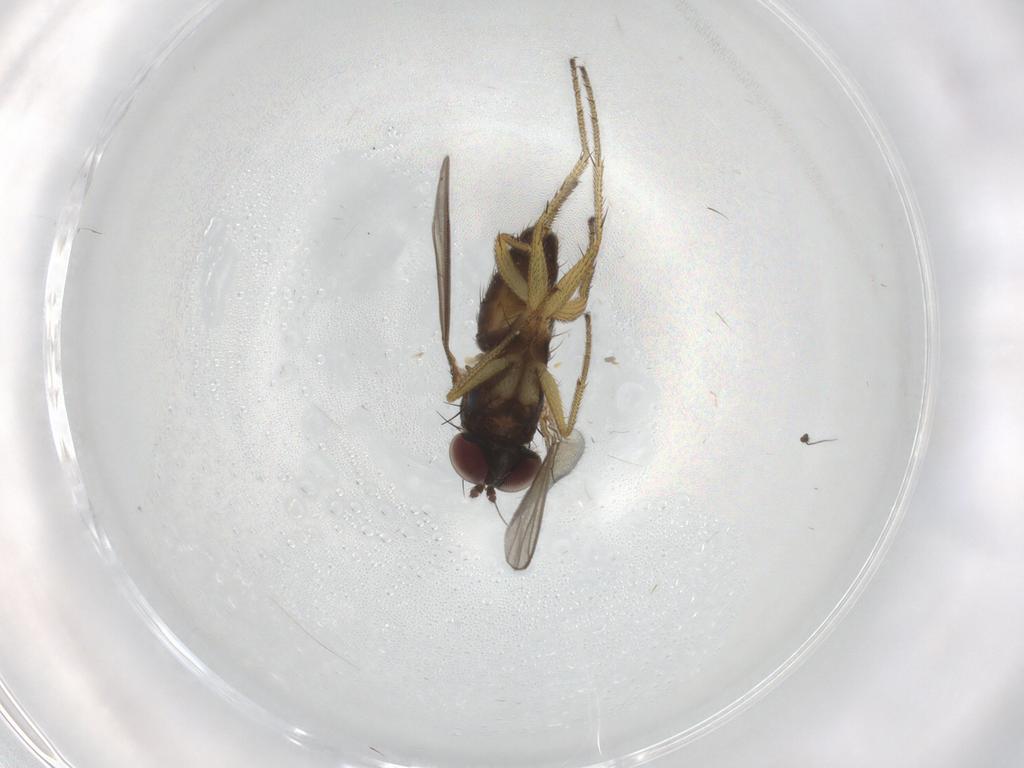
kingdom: Animalia
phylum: Arthropoda
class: Insecta
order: Diptera
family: Dolichopodidae
